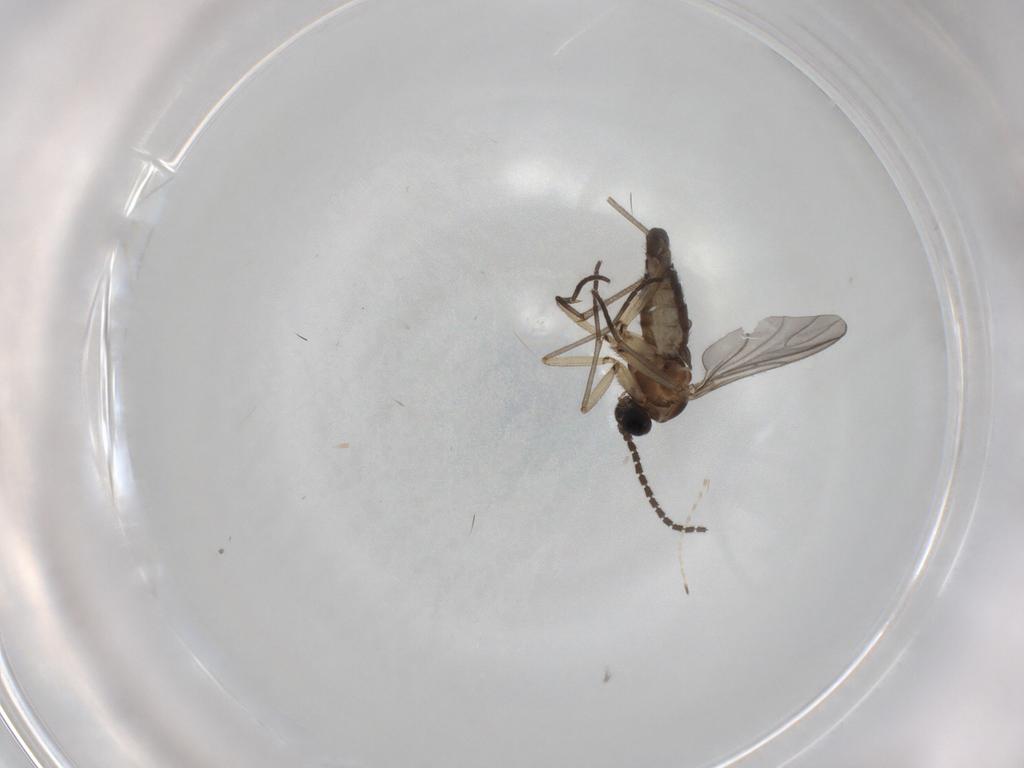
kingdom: Animalia
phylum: Arthropoda
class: Insecta
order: Diptera
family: Sciaridae
